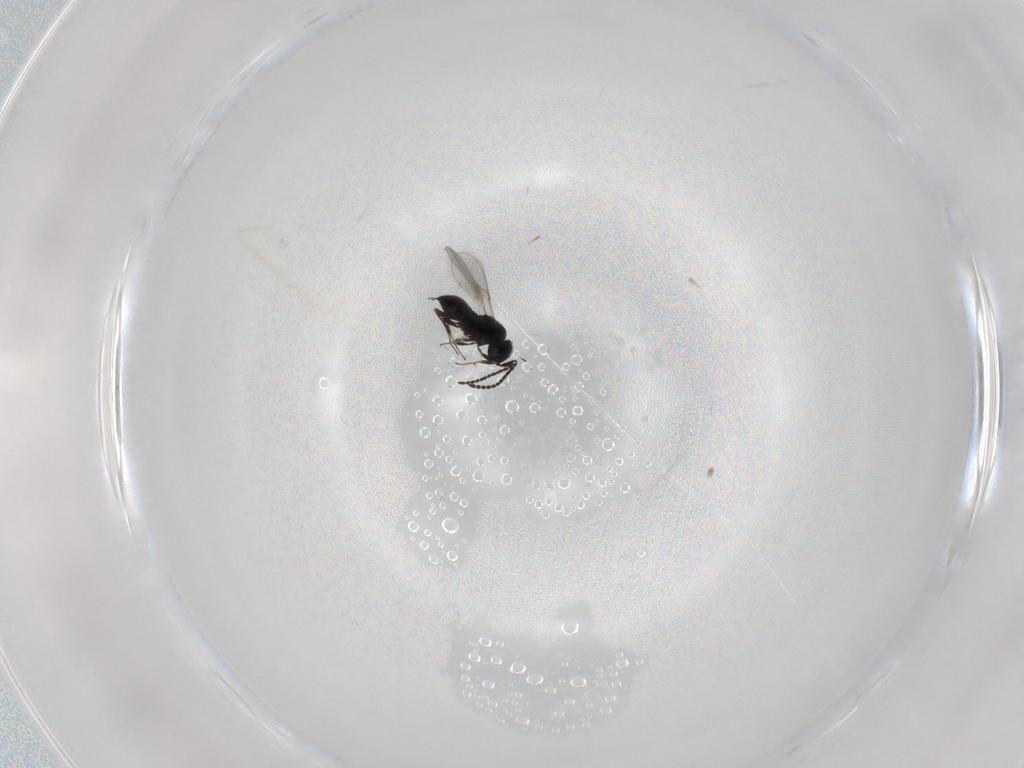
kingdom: Animalia
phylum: Arthropoda
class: Insecta
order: Hymenoptera
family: Scelionidae
